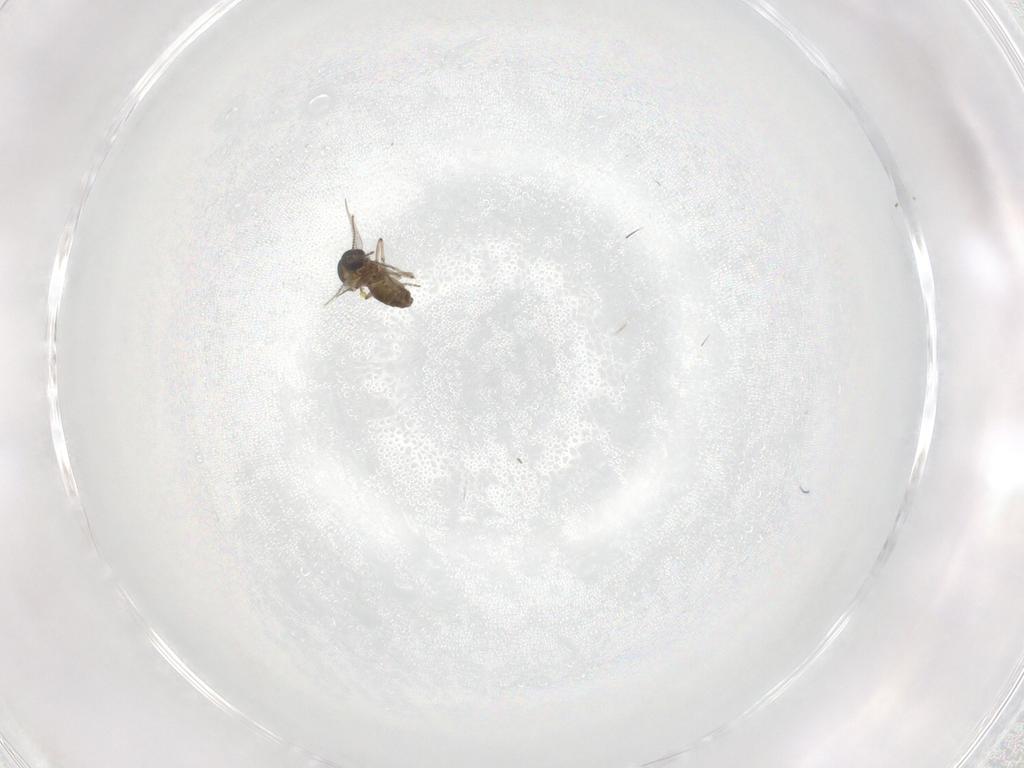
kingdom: Animalia
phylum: Arthropoda
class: Insecta
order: Diptera
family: Ceratopogonidae
